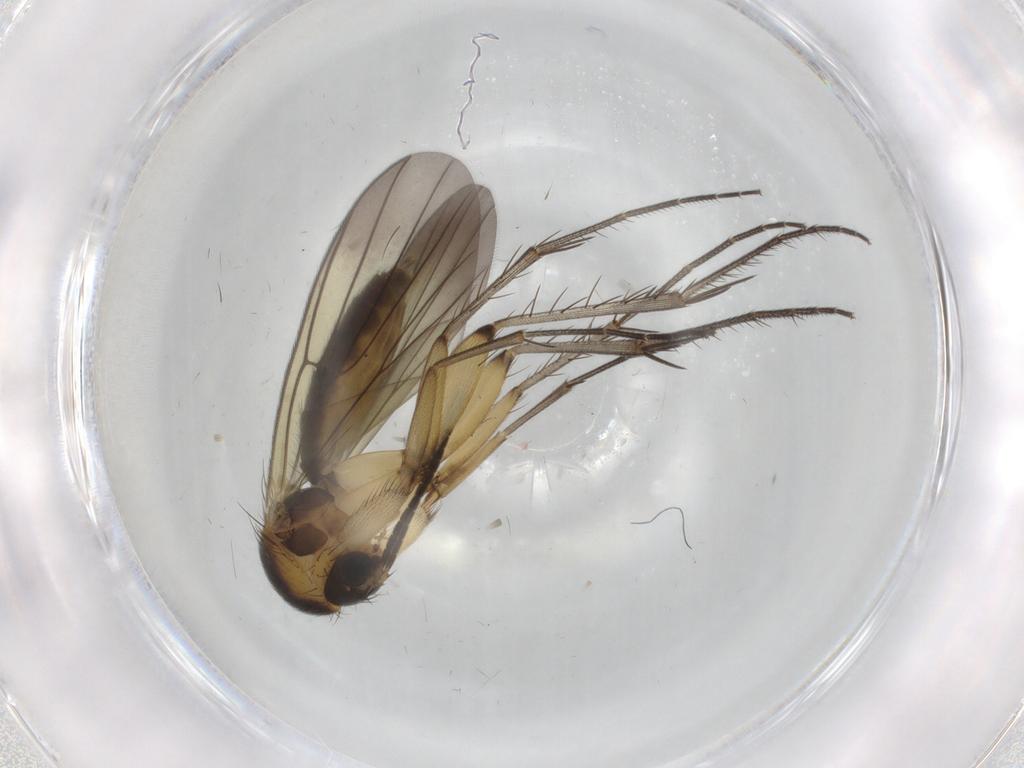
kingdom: Animalia
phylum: Arthropoda
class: Insecta
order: Diptera
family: Mycetophilidae
